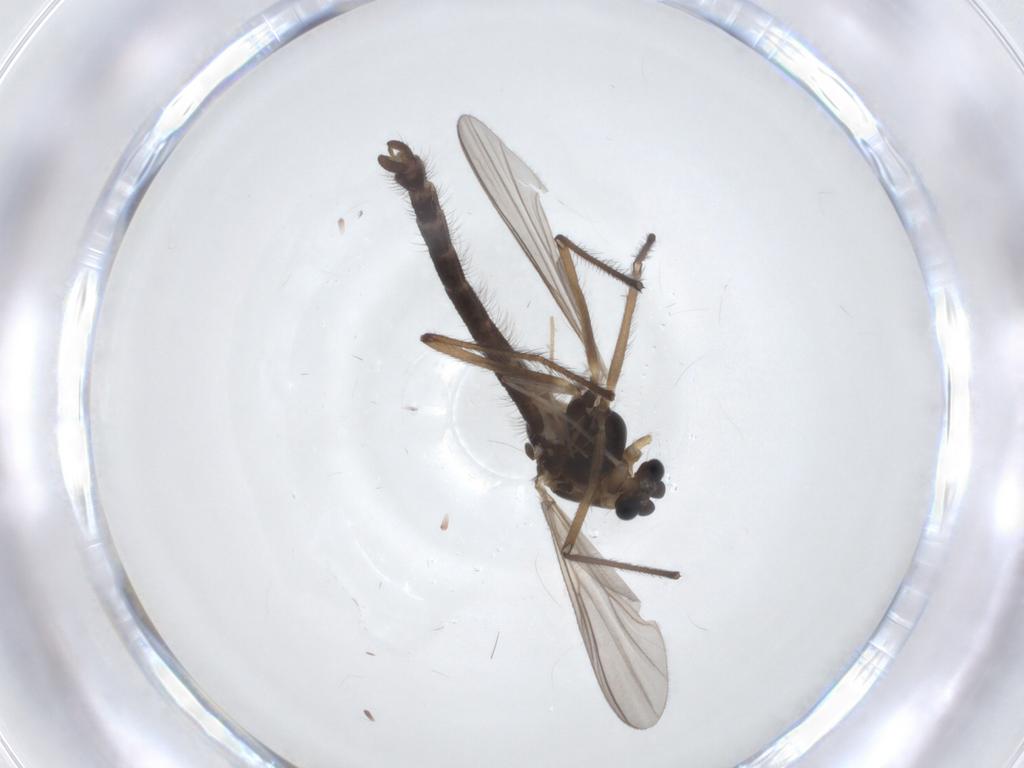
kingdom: Animalia
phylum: Arthropoda
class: Insecta
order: Diptera
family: Chironomidae
